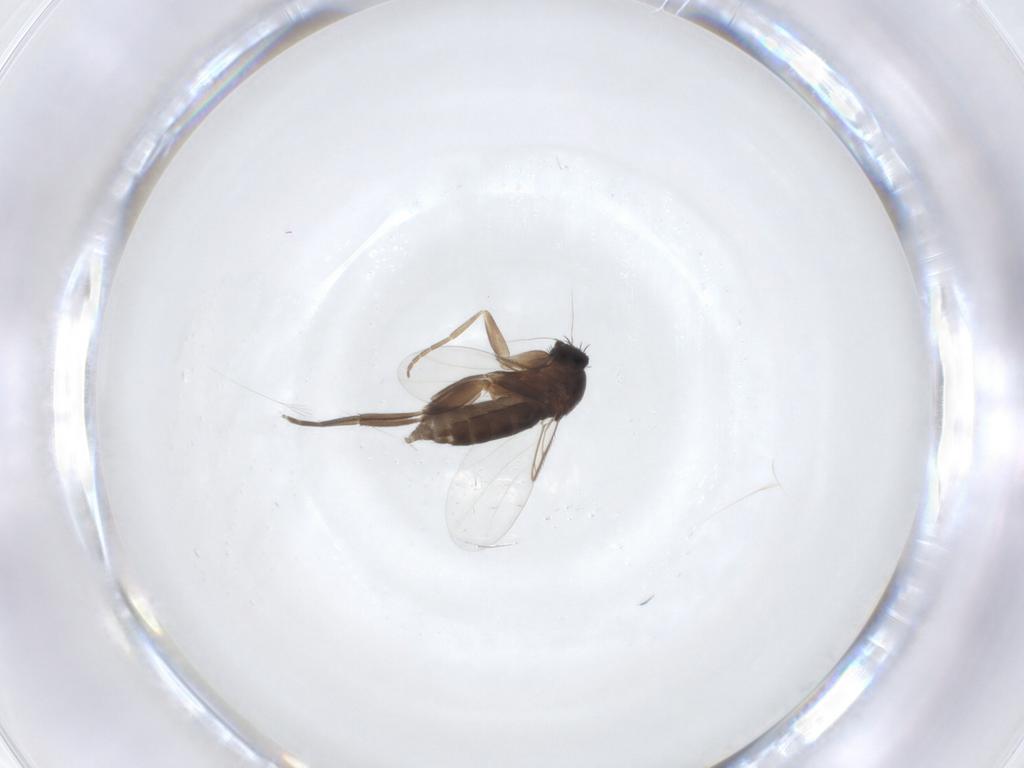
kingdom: Animalia
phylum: Arthropoda
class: Insecta
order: Diptera
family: Phoridae
